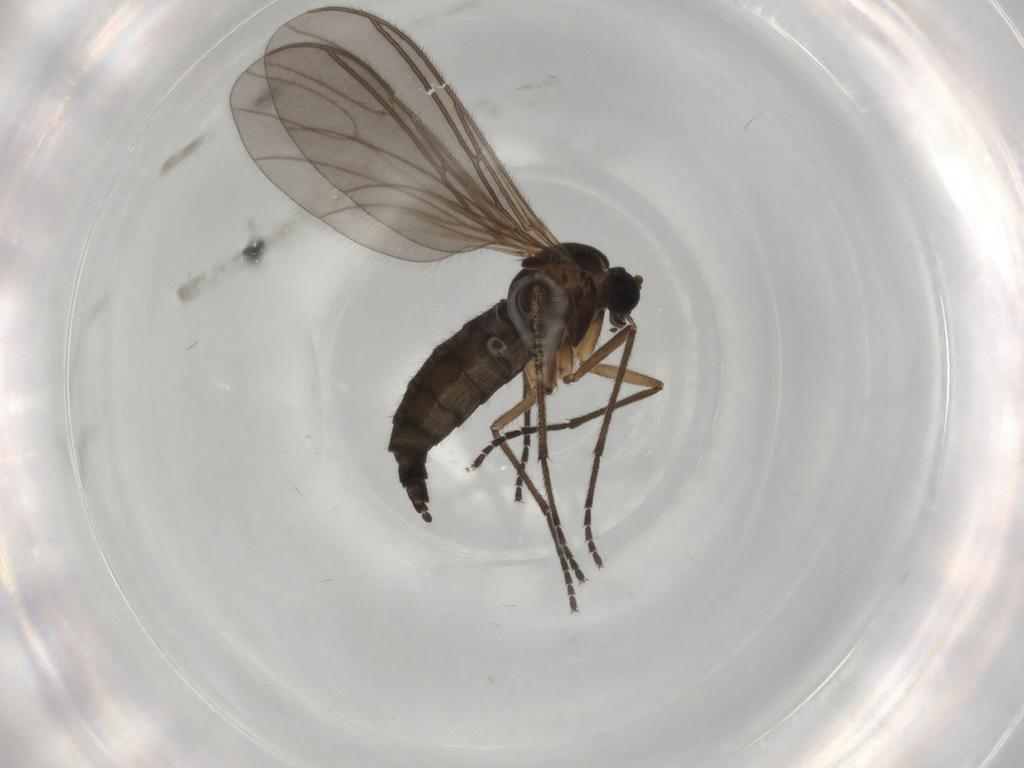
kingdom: Animalia
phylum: Arthropoda
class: Insecta
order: Diptera
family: Sciaridae
